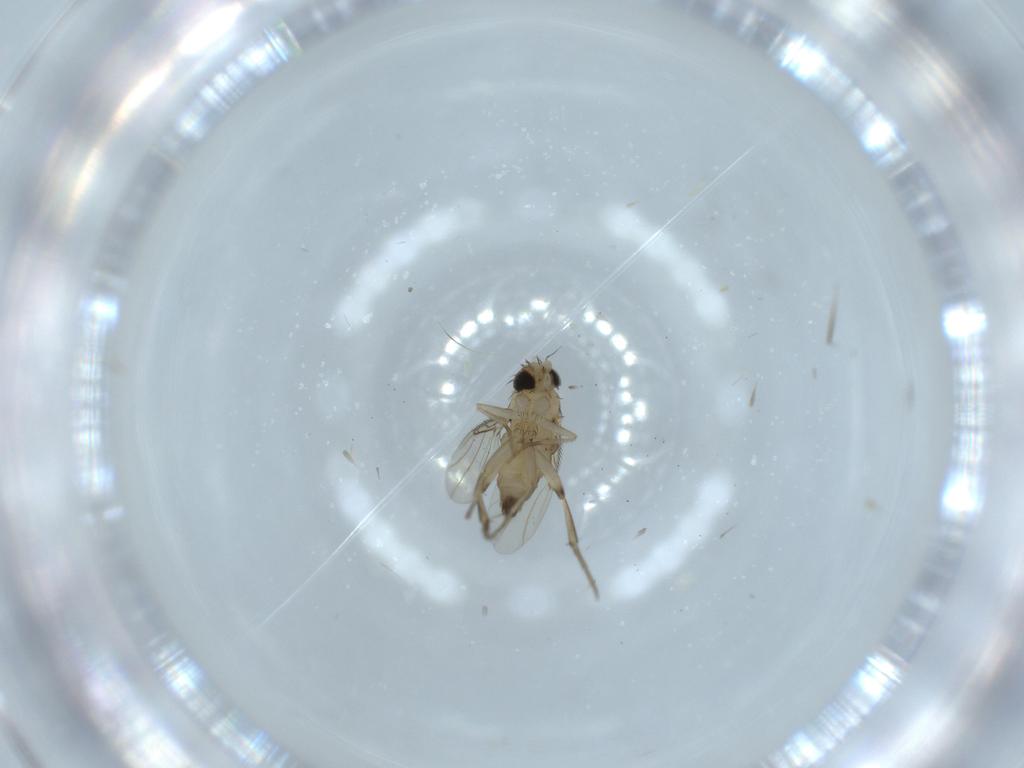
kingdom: Animalia
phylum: Arthropoda
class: Insecta
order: Diptera
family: Phoridae
